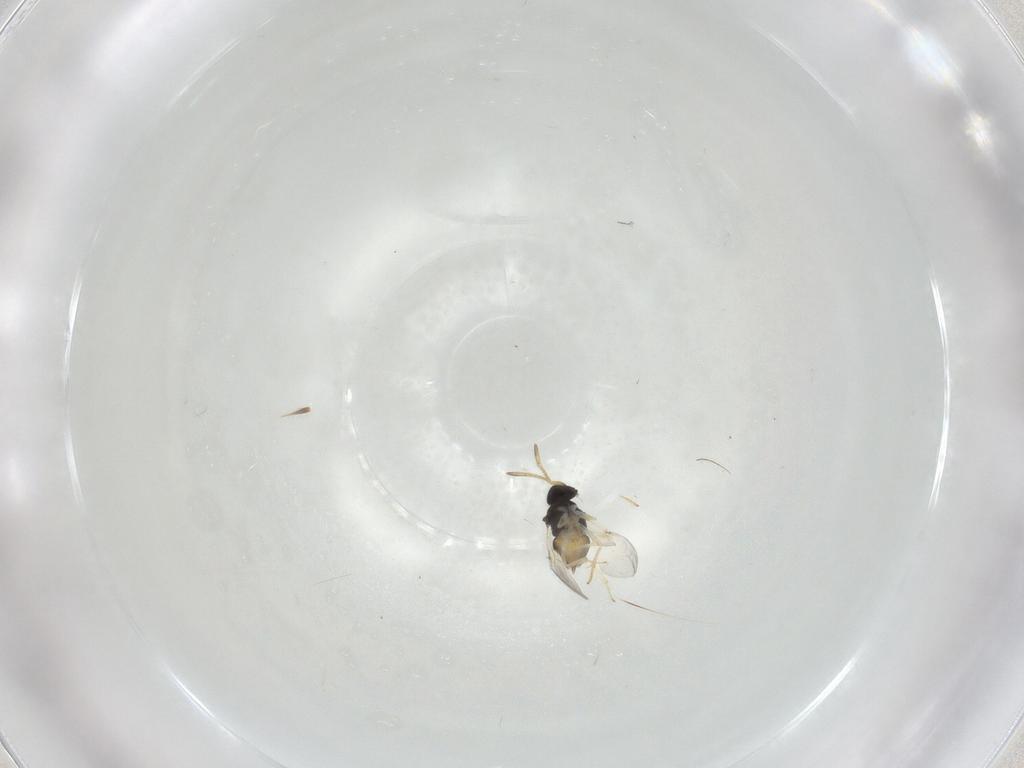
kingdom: Animalia
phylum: Arthropoda
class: Insecta
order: Hymenoptera
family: Encyrtidae
